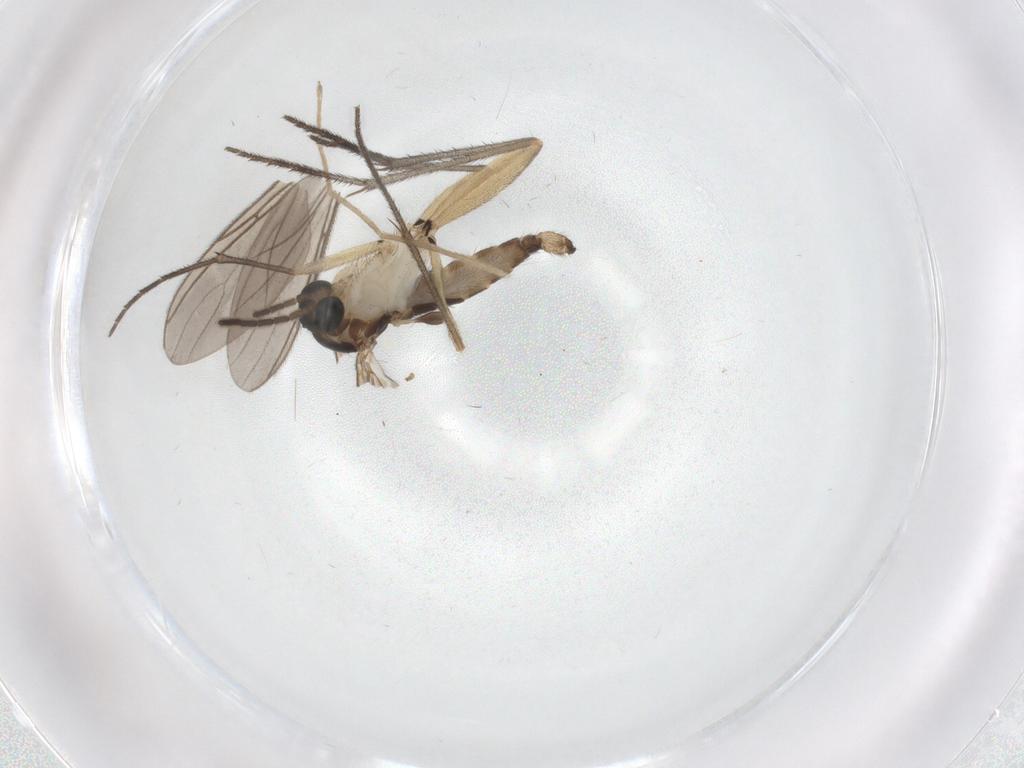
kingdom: Animalia
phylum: Arthropoda
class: Insecta
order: Diptera
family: Sciaridae
